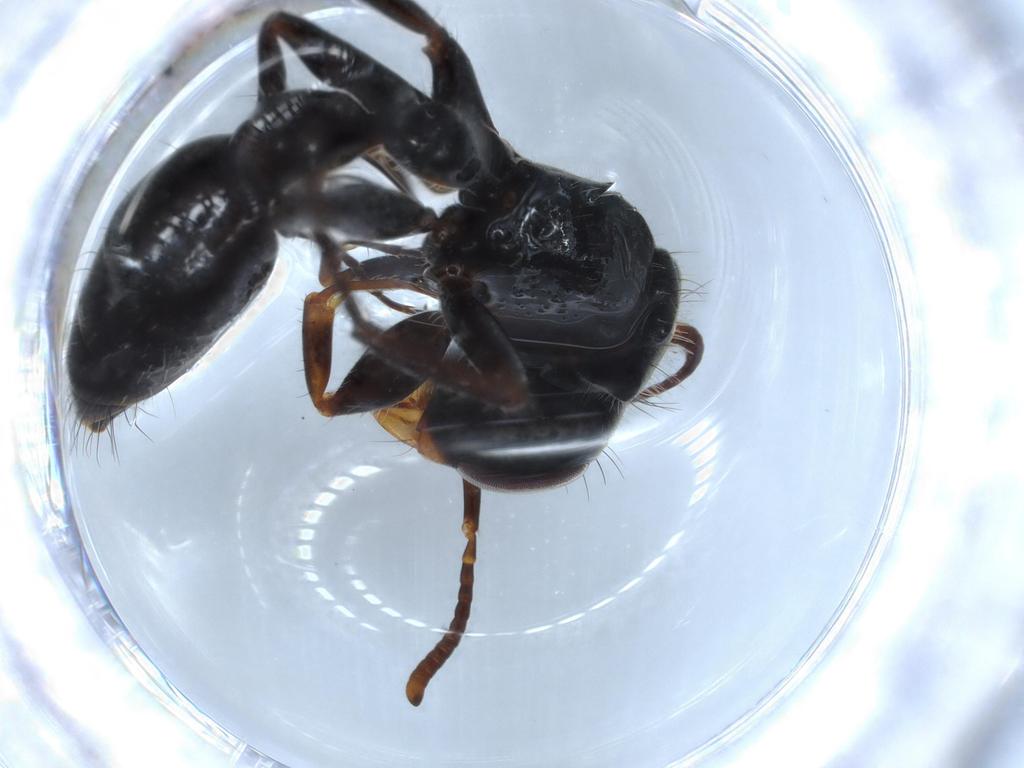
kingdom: Animalia
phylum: Arthropoda
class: Insecta
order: Hymenoptera
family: Formicidae
